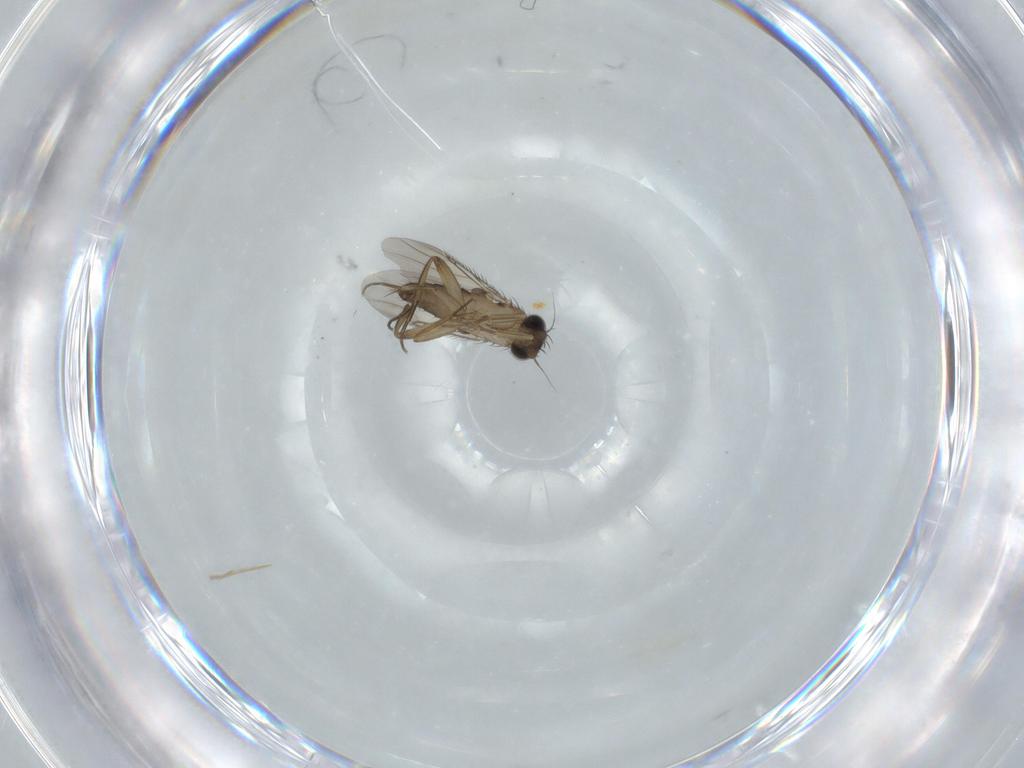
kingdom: Animalia
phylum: Arthropoda
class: Insecta
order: Diptera
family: Phoridae
